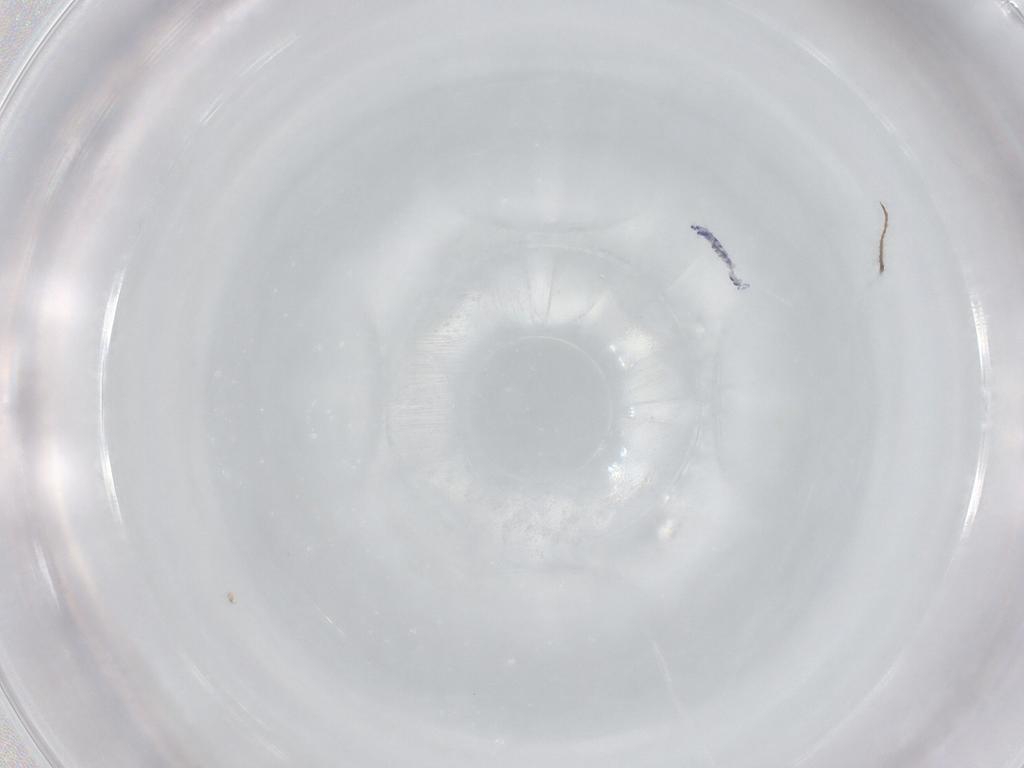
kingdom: Animalia
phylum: Arthropoda
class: Collembola
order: Entomobryomorpha
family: Entomobryidae
